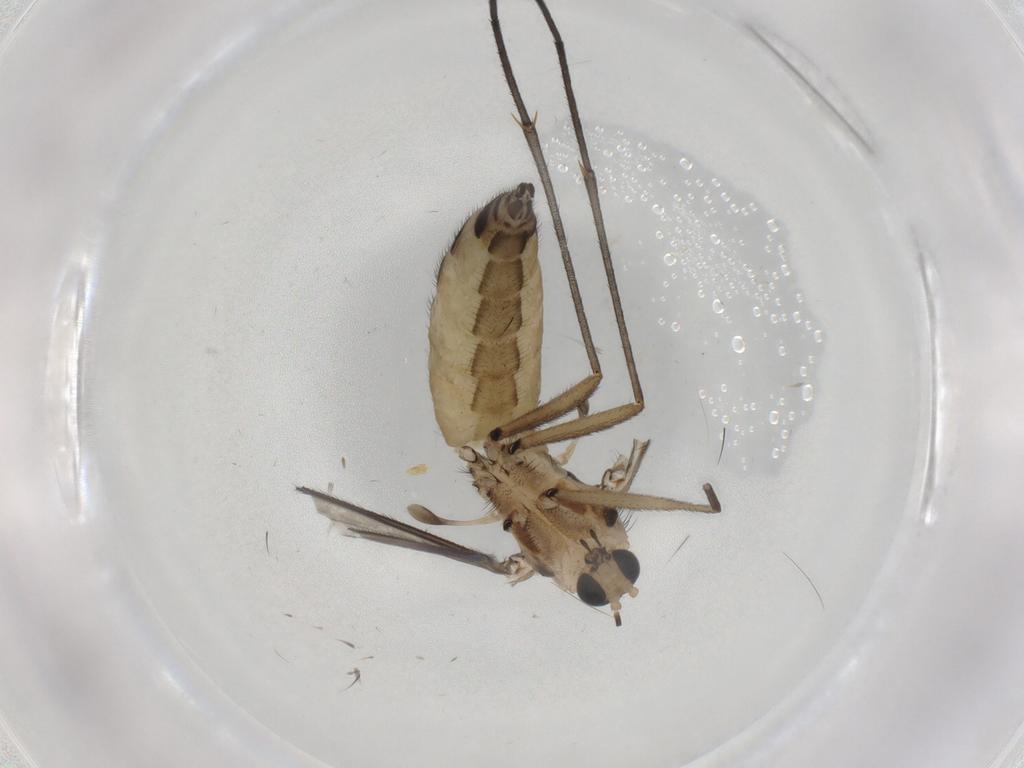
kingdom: Animalia
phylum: Arthropoda
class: Insecta
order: Diptera
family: Sciaridae
